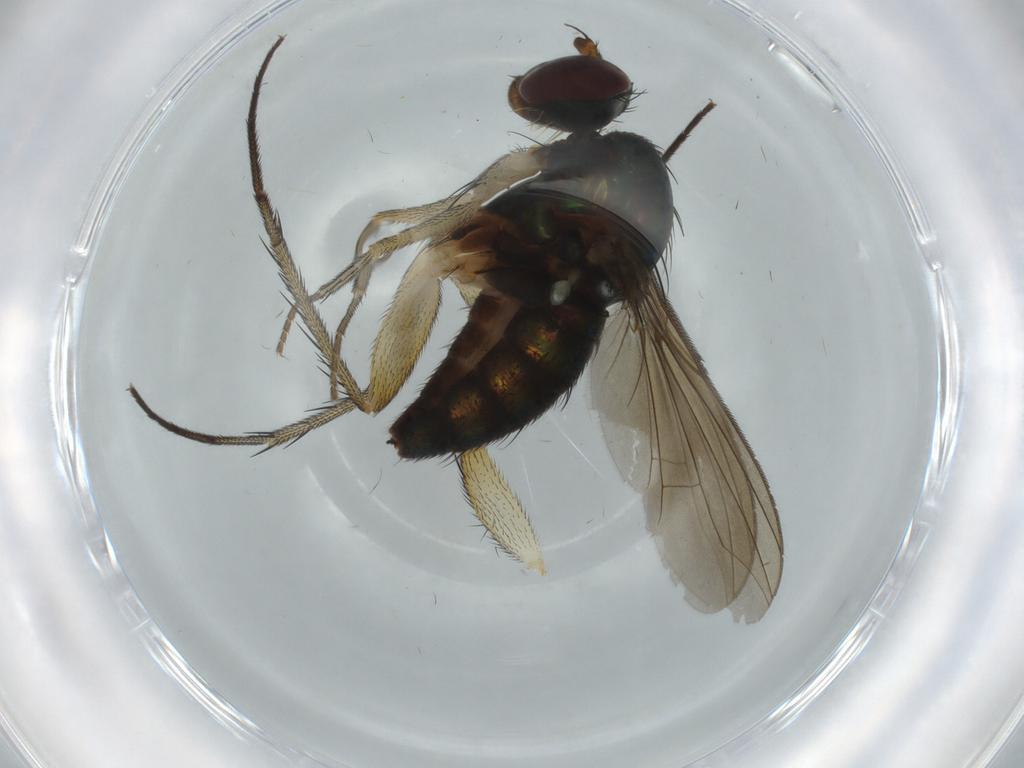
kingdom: Animalia
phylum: Arthropoda
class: Insecta
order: Diptera
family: Dolichopodidae
